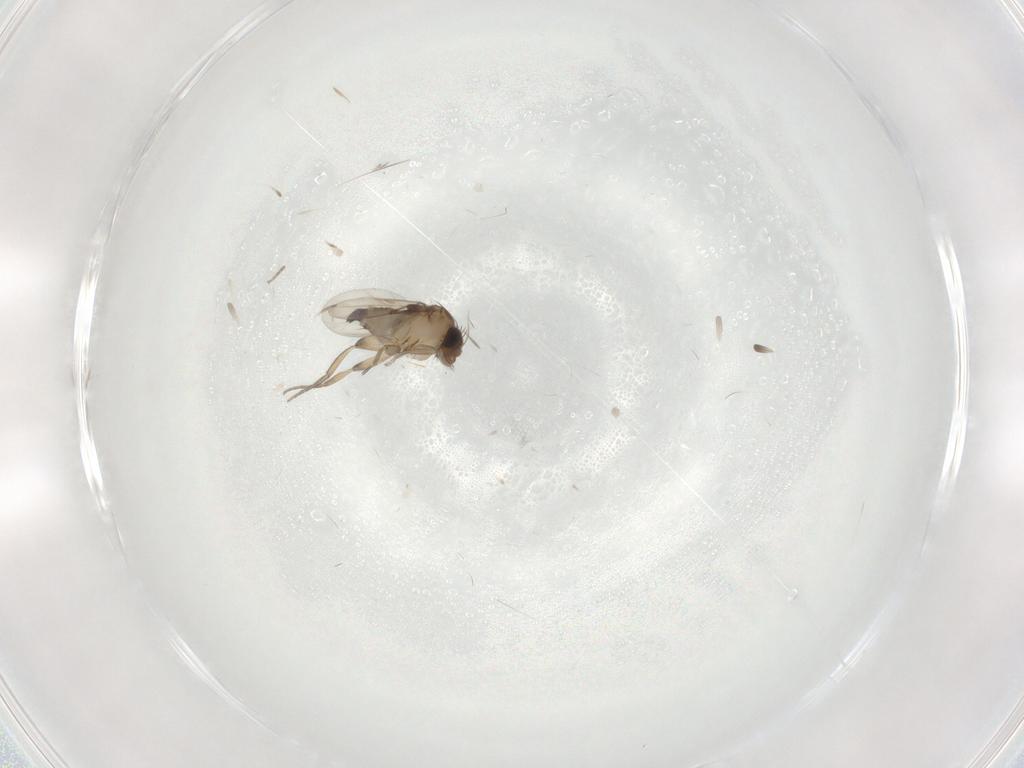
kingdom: Animalia
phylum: Arthropoda
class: Insecta
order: Diptera
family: Phoridae
